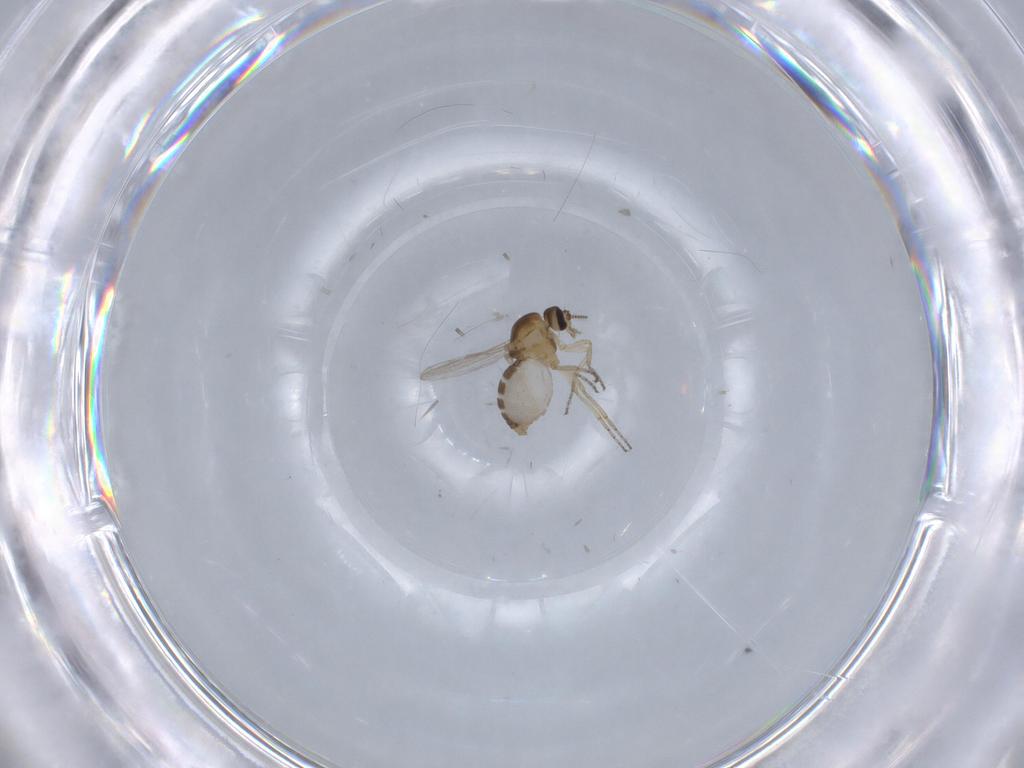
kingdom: Animalia
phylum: Arthropoda
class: Insecta
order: Diptera
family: Ceratopogonidae
